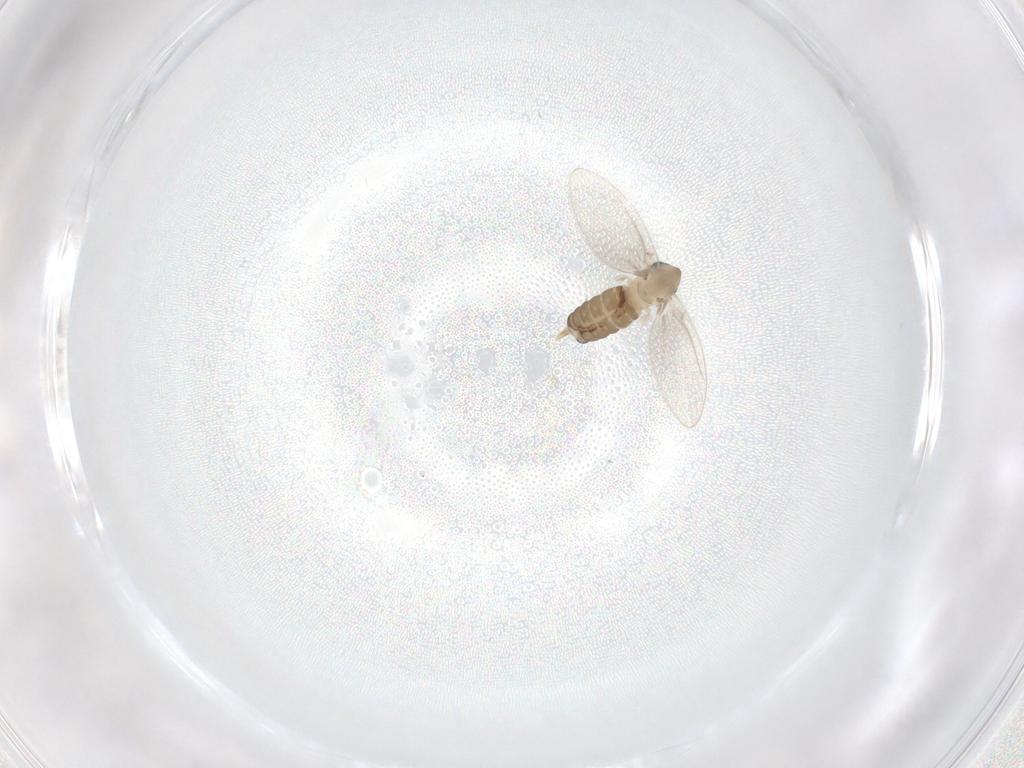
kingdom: Animalia
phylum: Arthropoda
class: Insecta
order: Diptera
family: Psychodidae
